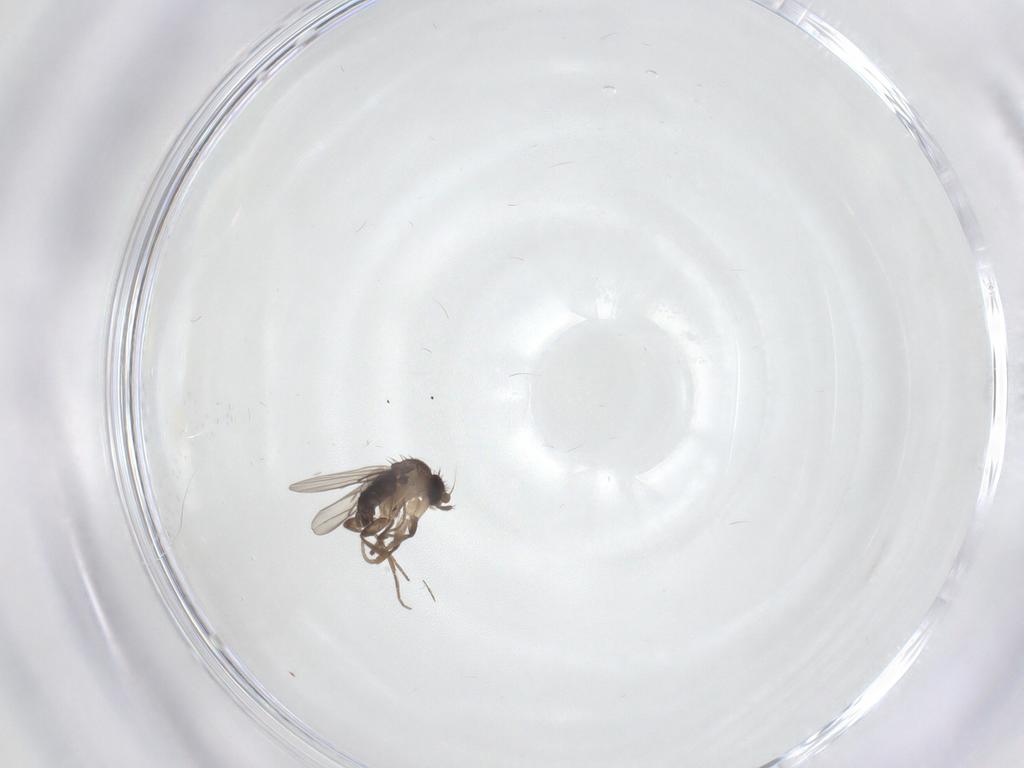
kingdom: Animalia
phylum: Arthropoda
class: Insecta
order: Diptera
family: Phoridae
